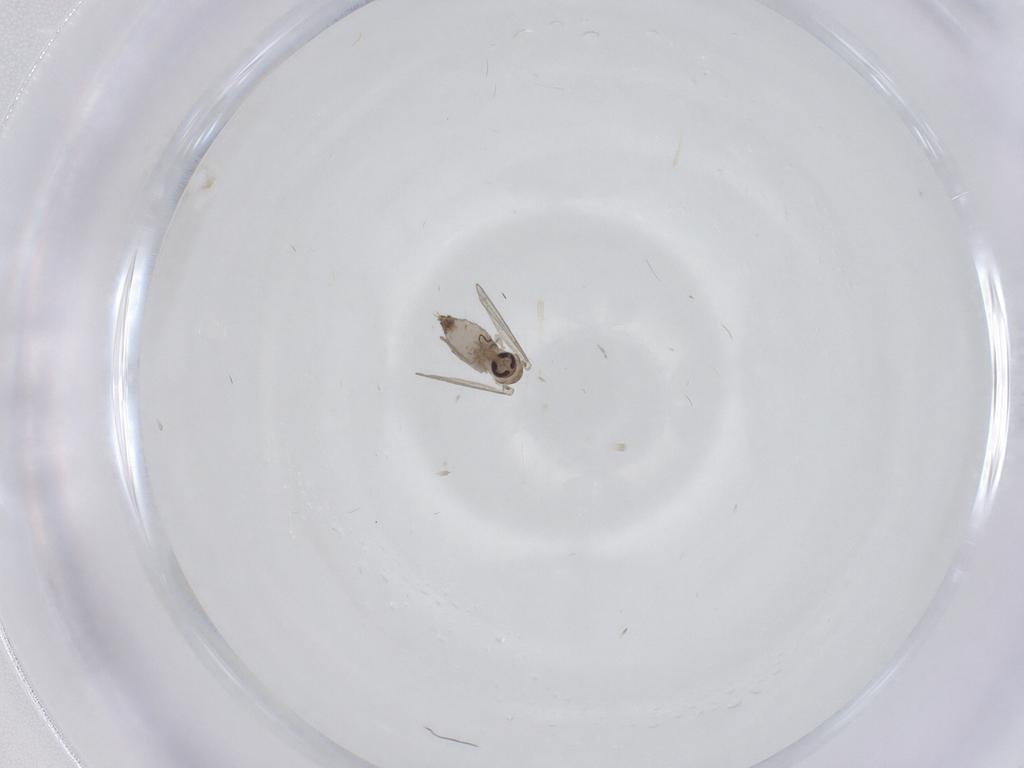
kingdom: Animalia
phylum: Arthropoda
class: Insecta
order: Diptera
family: Psychodidae
